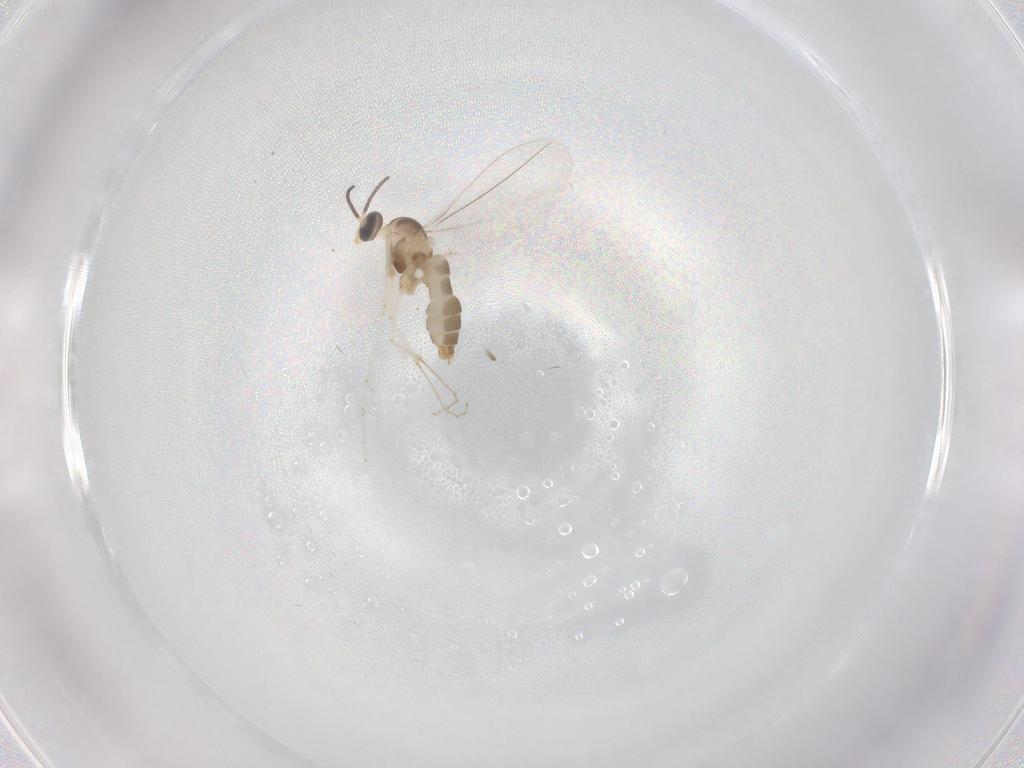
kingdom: Animalia
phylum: Arthropoda
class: Insecta
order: Diptera
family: Cecidomyiidae
